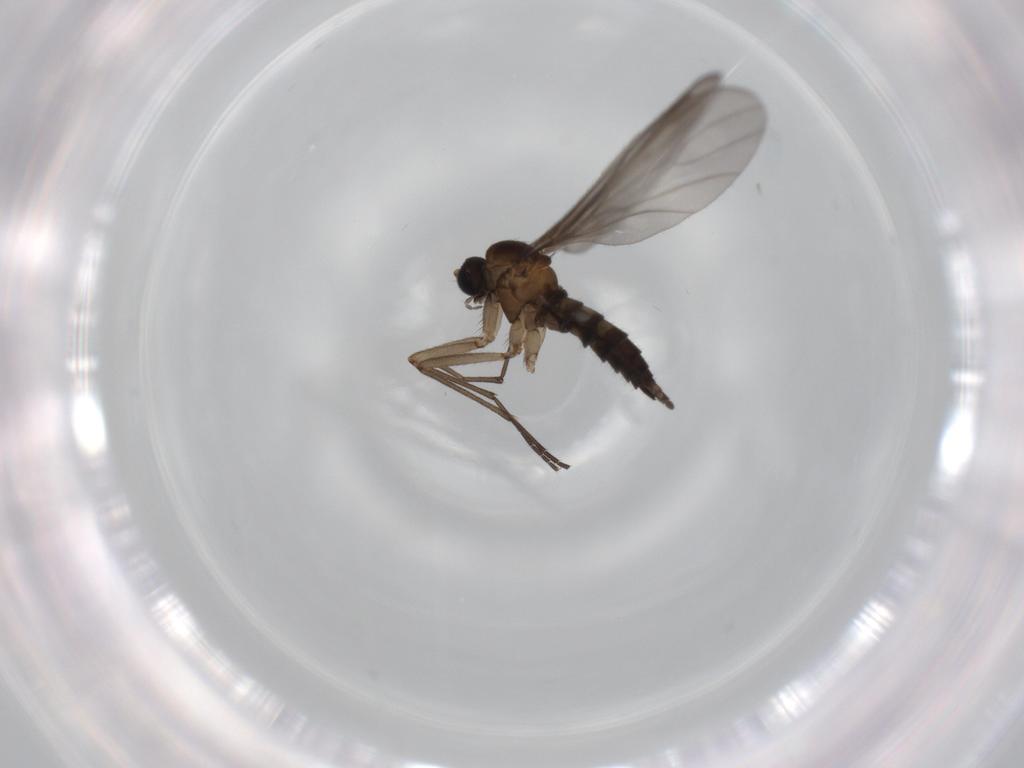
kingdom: Animalia
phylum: Arthropoda
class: Insecta
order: Diptera
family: Sciaridae
